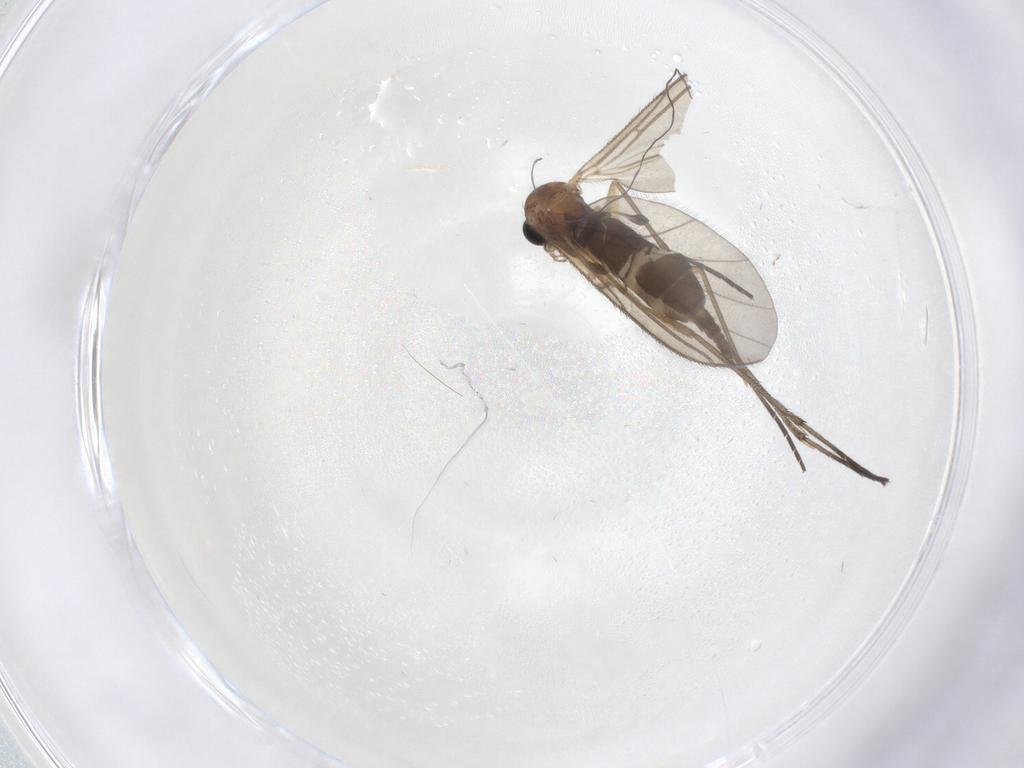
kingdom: Animalia
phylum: Arthropoda
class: Insecta
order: Diptera
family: Sciaridae
